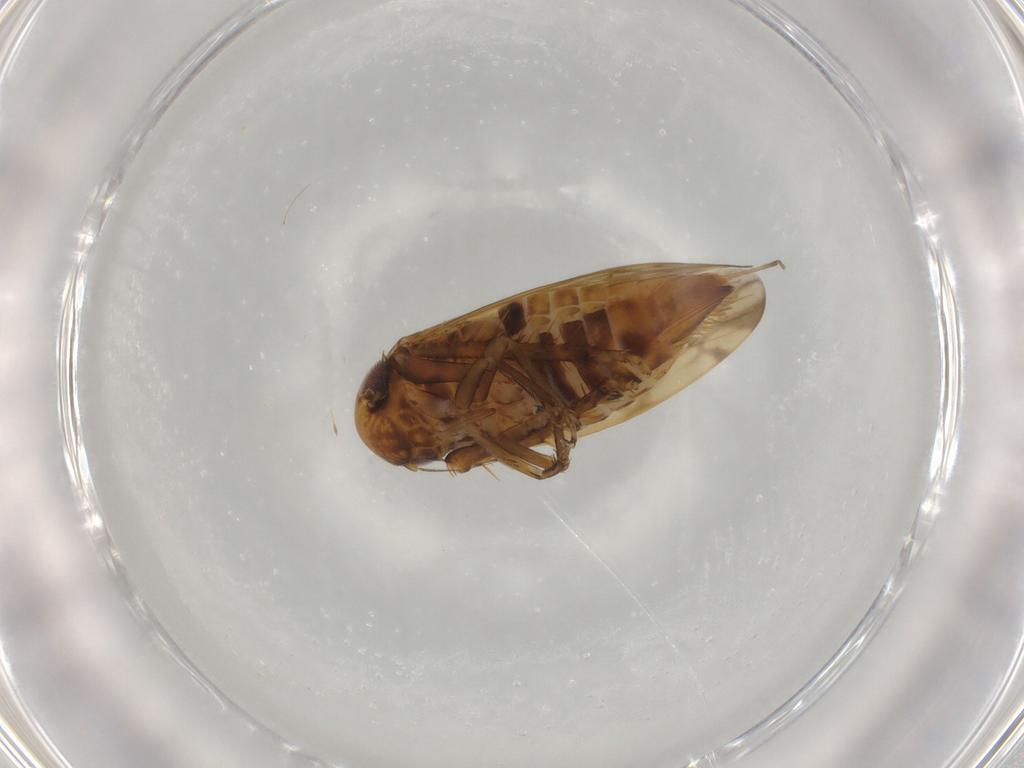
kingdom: Animalia
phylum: Arthropoda
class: Insecta
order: Hemiptera
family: Cicadellidae
